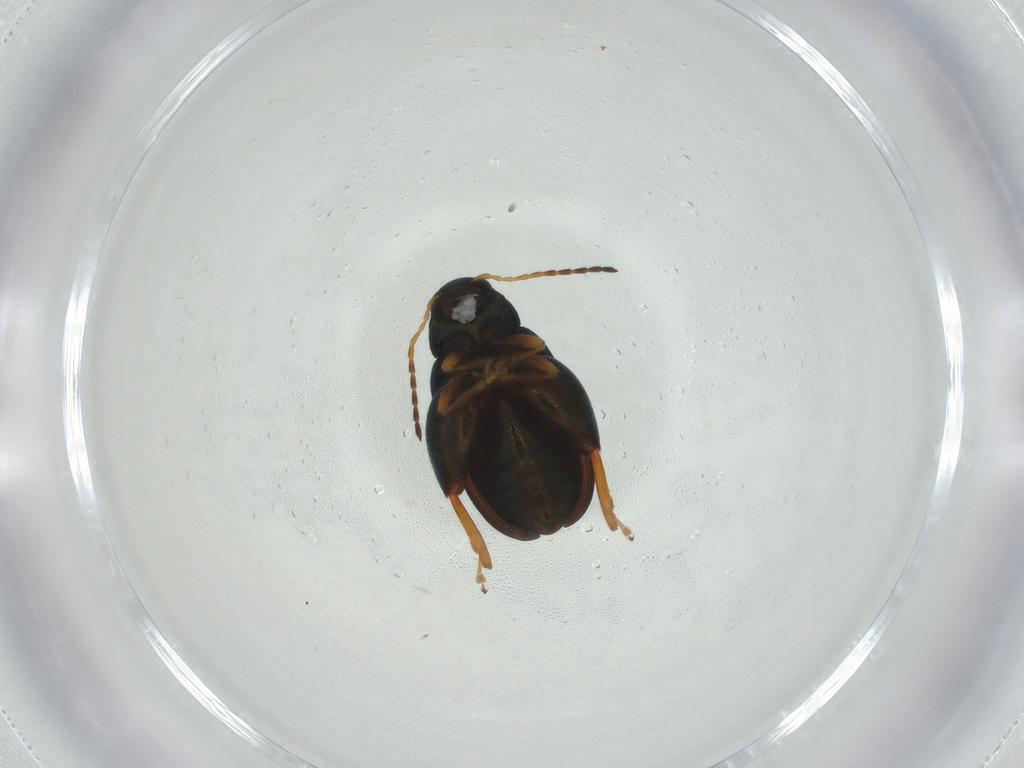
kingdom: Animalia
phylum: Arthropoda
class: Insecta
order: Coleoptera
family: Chrysomelidae
